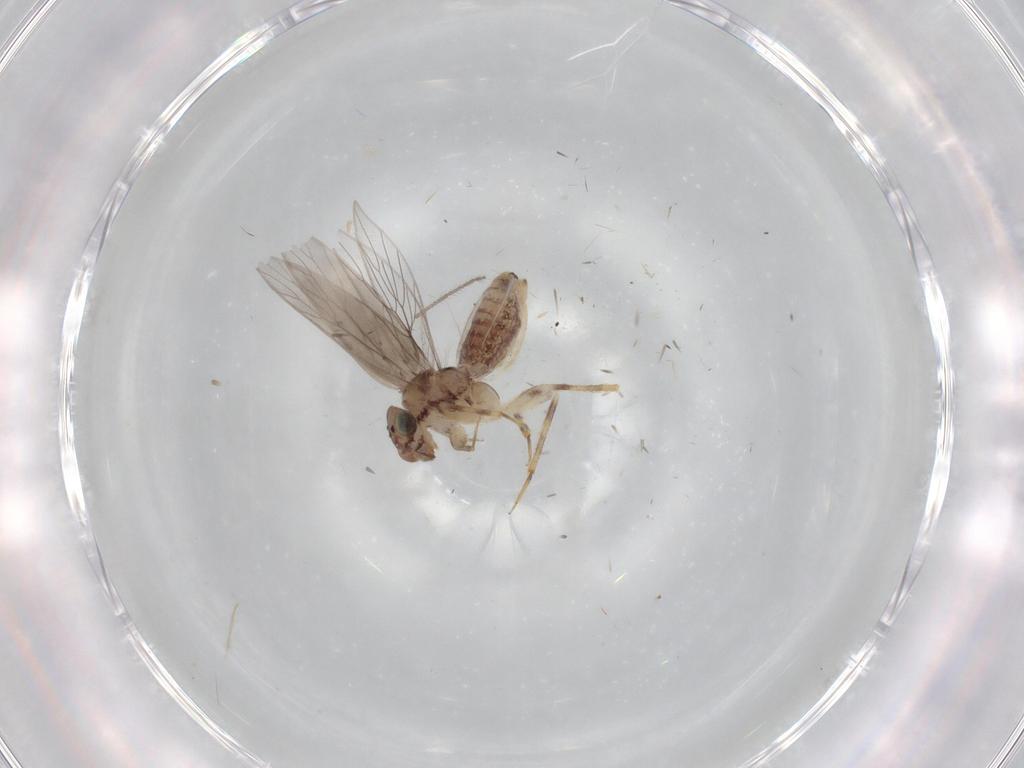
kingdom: Animalia
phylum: Arthropoda
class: Insecta
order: Psocodea
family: Lepidopsocidae
